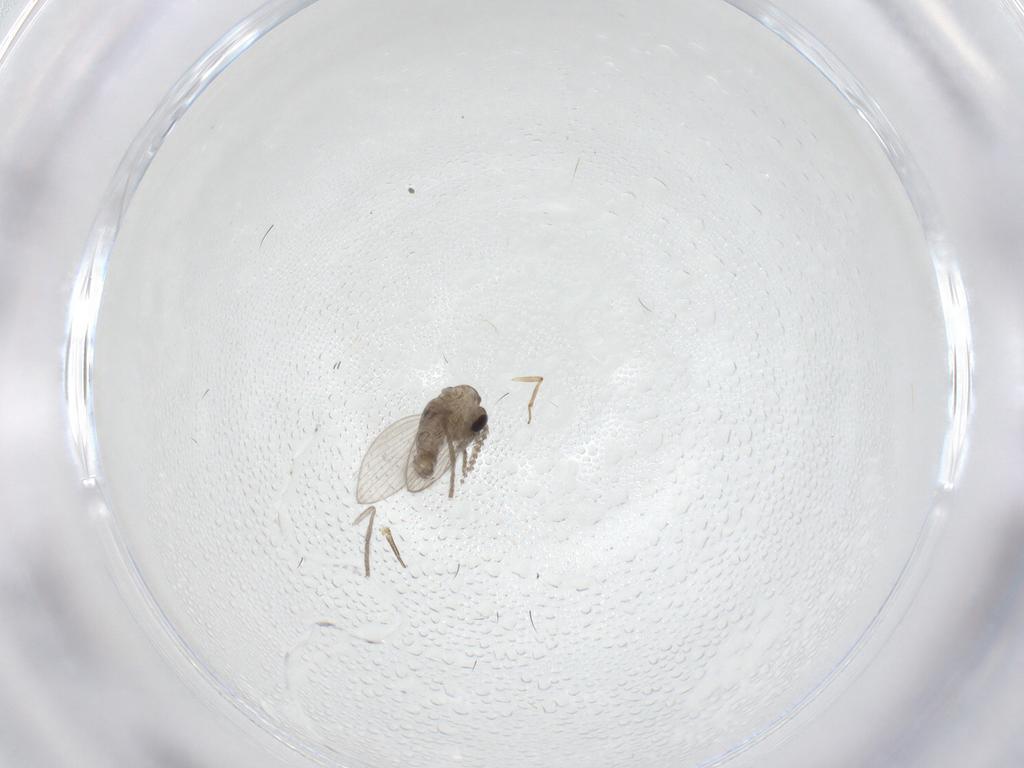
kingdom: Animalia
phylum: Arthropoda
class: Insecta
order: Diptera
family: Psychodidae
